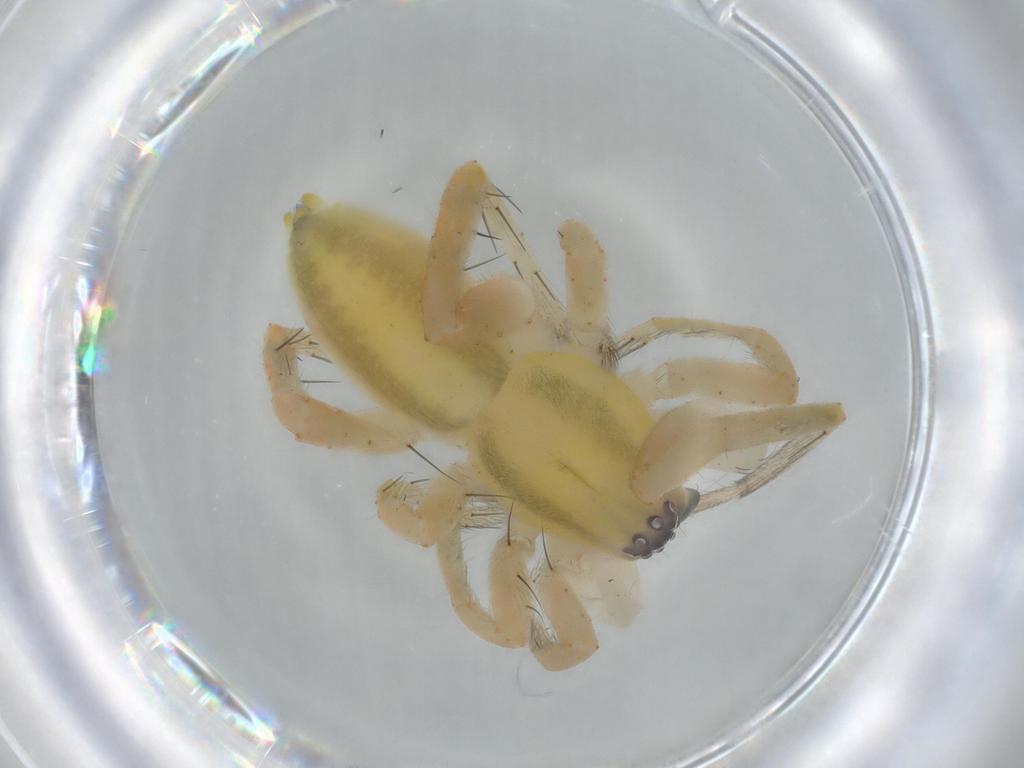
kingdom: Animalia
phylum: Arthropoda
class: Arachnida
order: Araneae
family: Anyphaenidae
